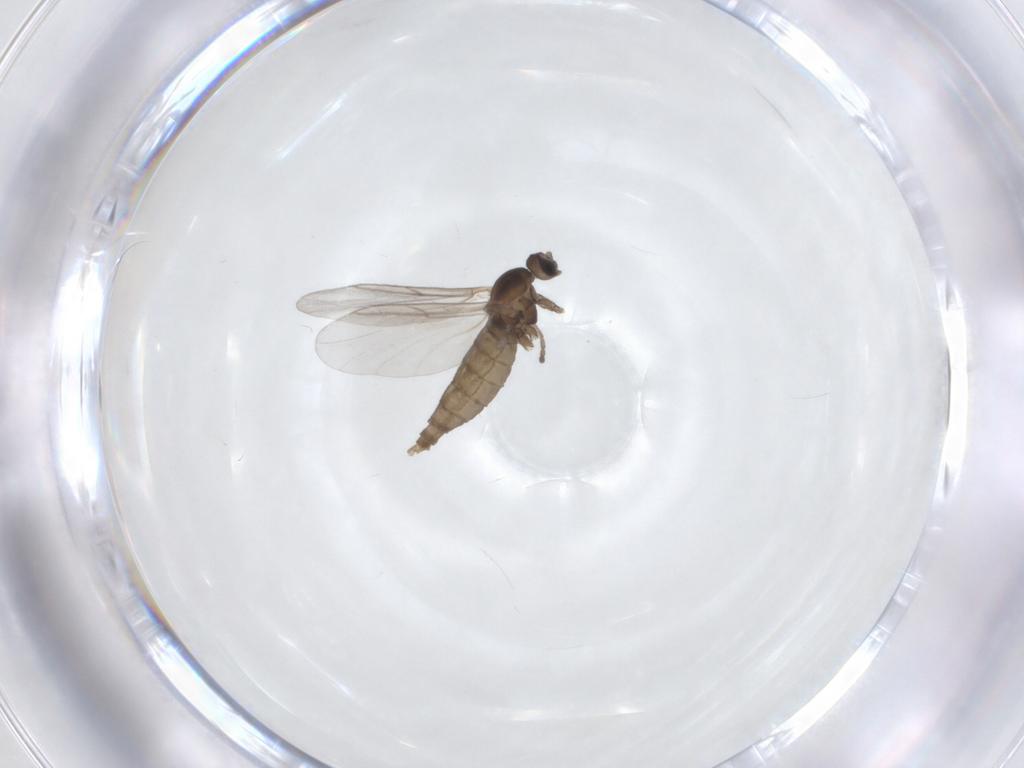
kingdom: Animalia
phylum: Arthropoda
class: Insecta
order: Diptera
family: Cecidomyiidae
